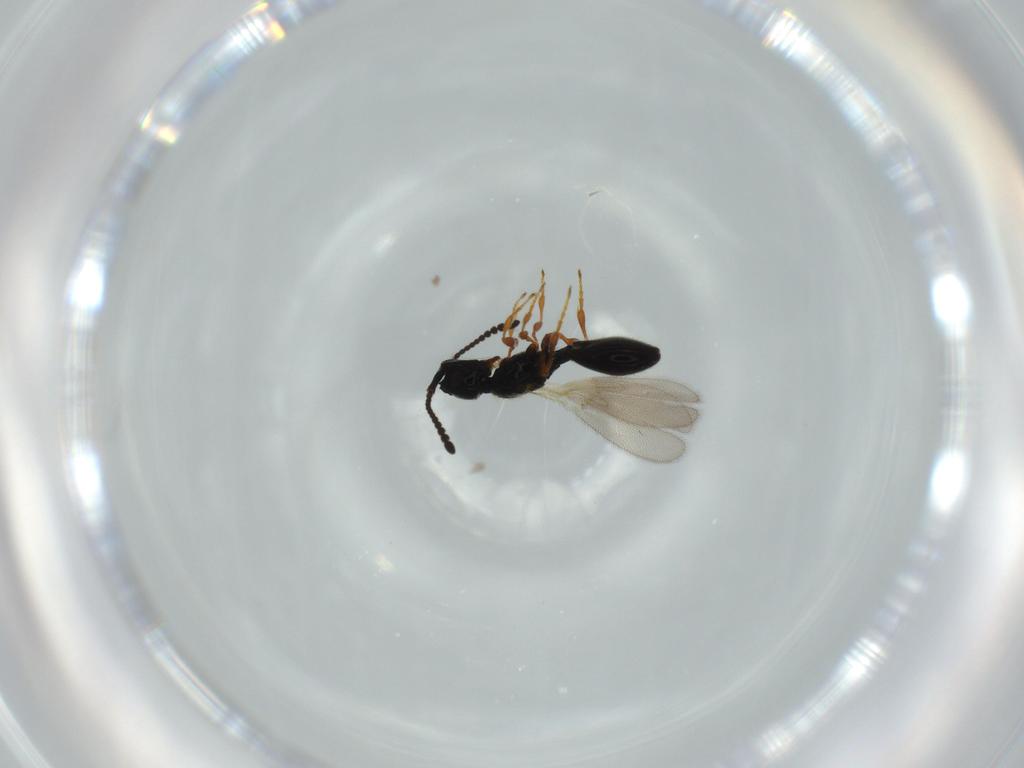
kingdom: Animalia
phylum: Arthropoda
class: Insecta
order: Hymenoptera
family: Diapriidae
